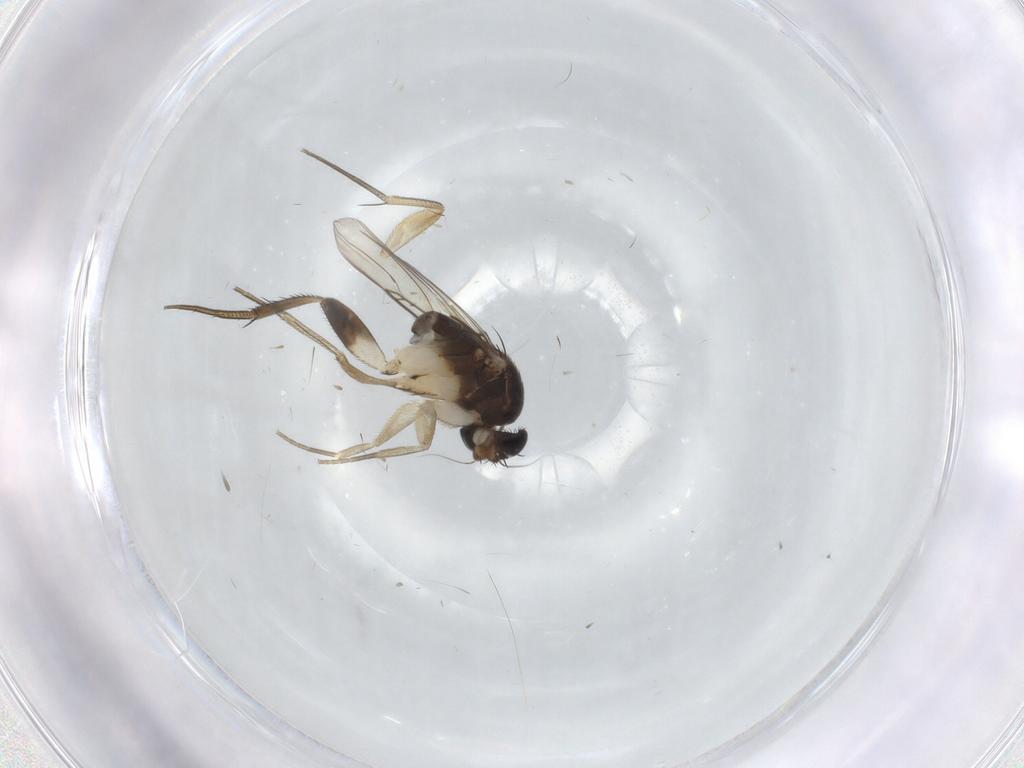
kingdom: Animalia
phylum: Arthropoda
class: Insecta
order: Diptera
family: Phoridae
